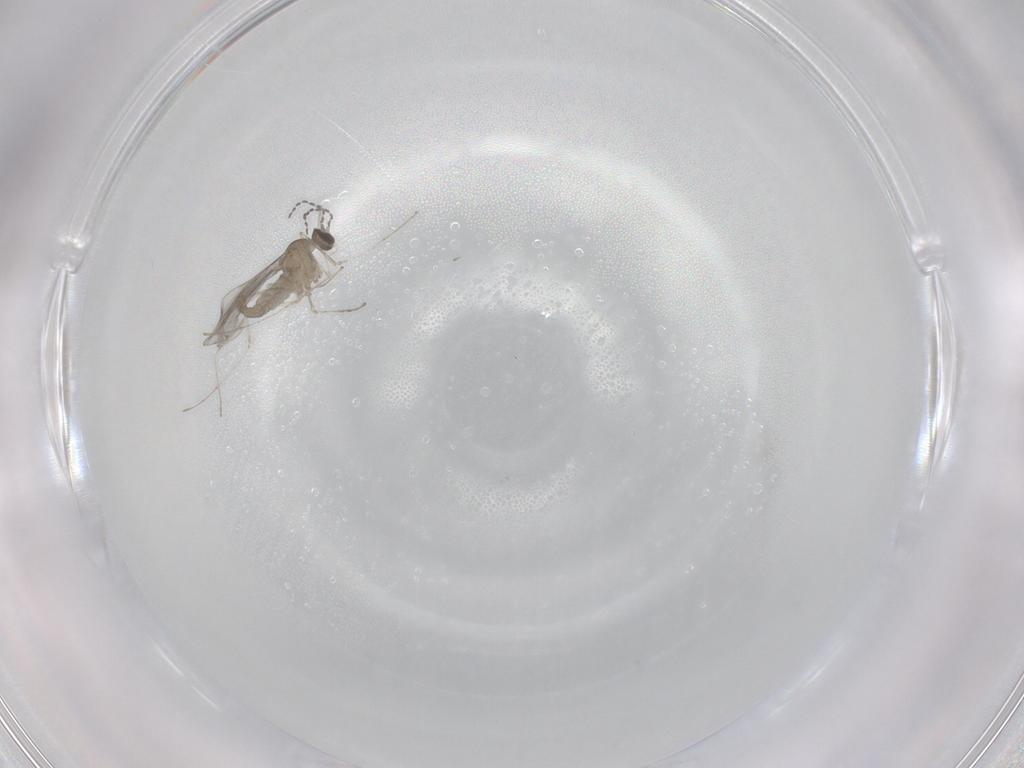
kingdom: Animalia
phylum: Arthropoda
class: Insecta
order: Diptera
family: Cecidomyiidae
